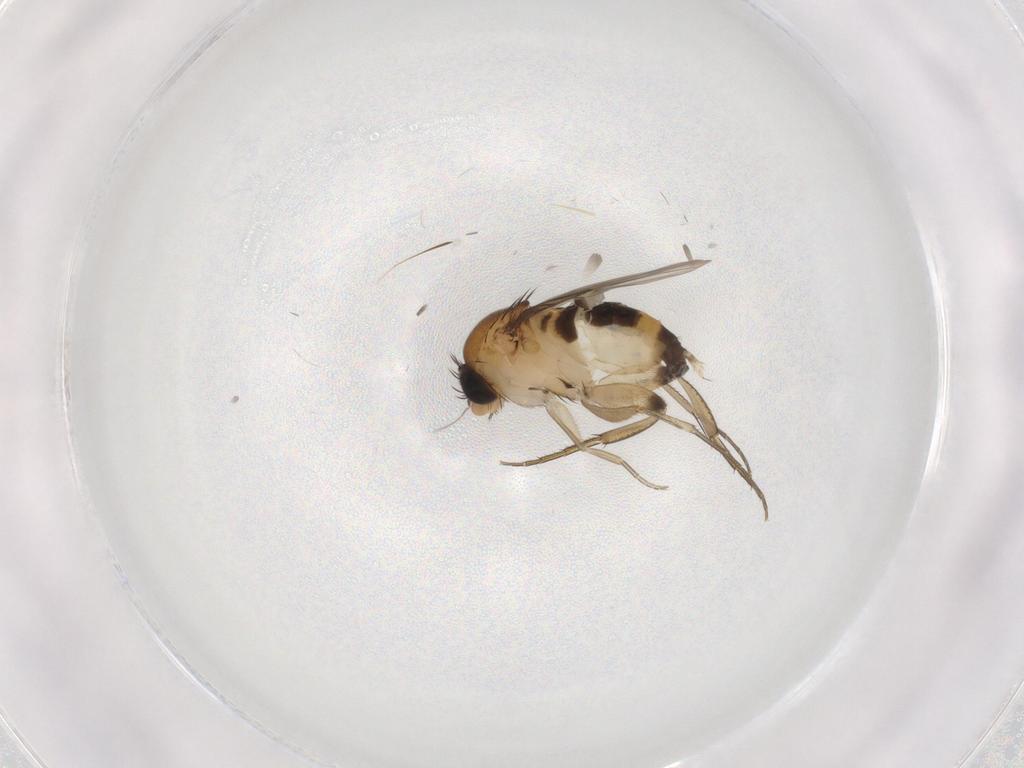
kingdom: Animalia
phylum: Arthropoda
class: Insecta
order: Diptera
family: Phoridae
